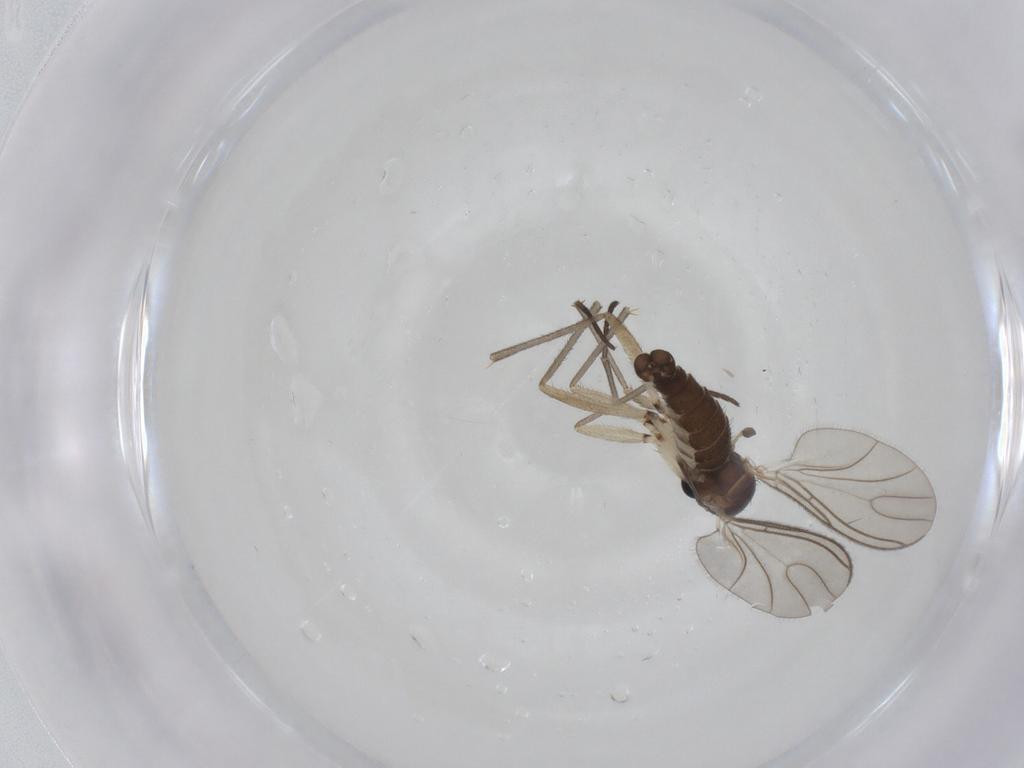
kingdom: Animalia
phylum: Arthropoda
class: Insecta
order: Diptera
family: Sciaridae
